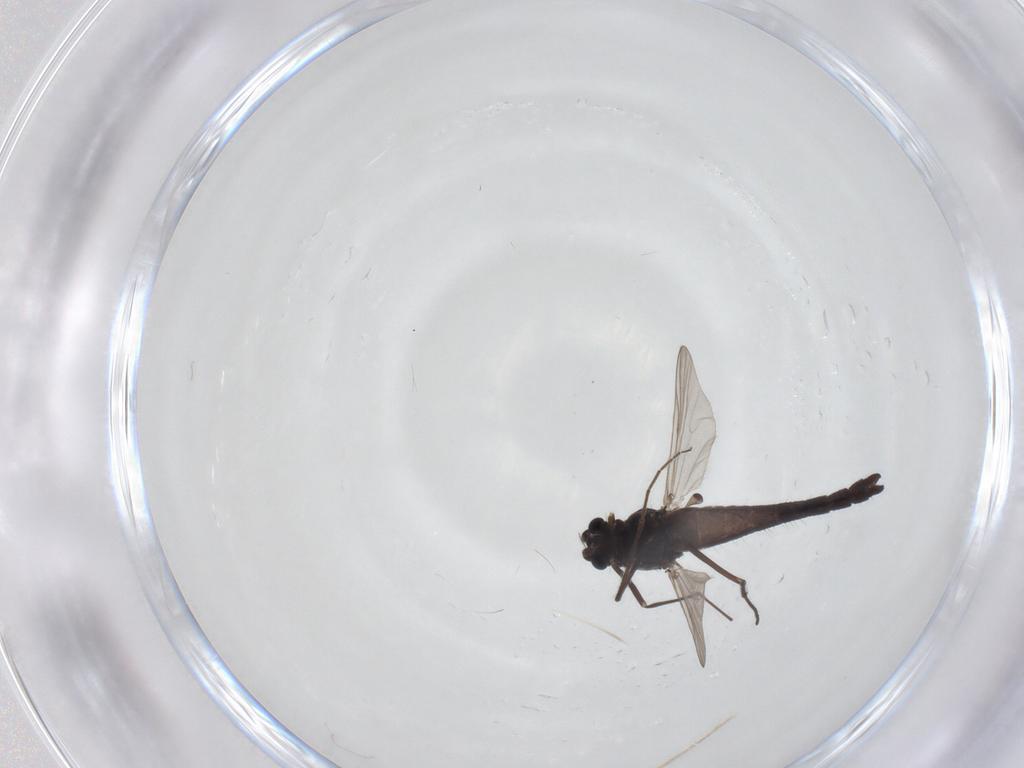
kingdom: Animalia
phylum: Arthropoda
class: Insecta
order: Diptera
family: Chironomidae
